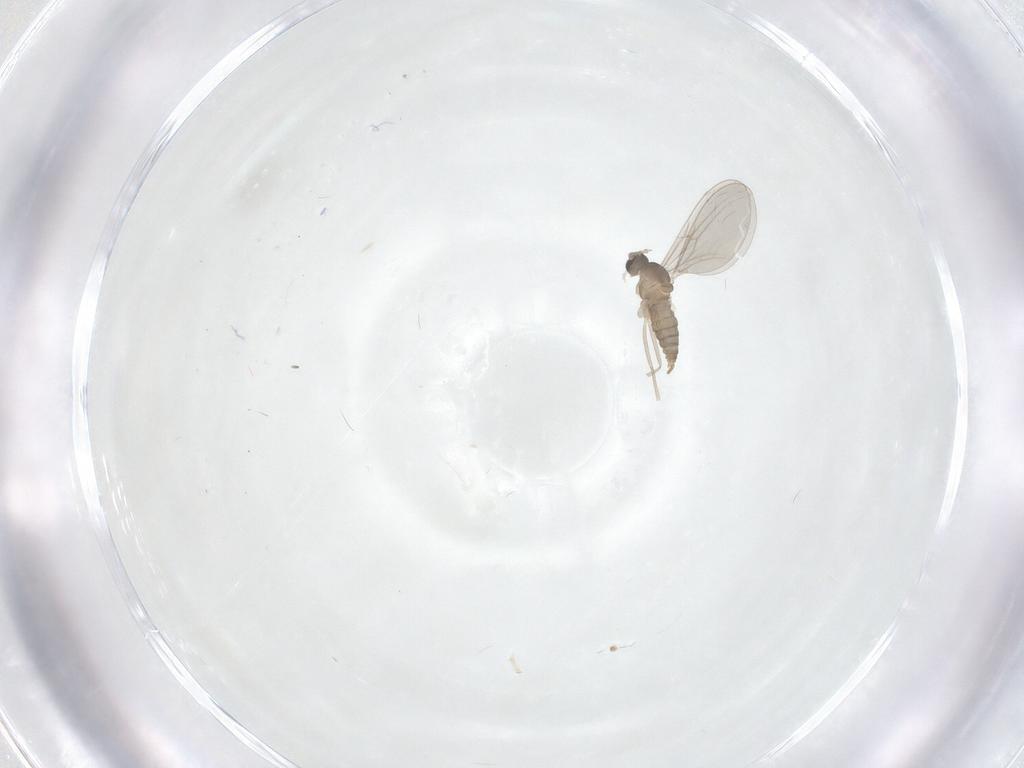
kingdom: Animalia
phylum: Arthropoda
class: Insecta
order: Diptera
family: Cecidomyiidae
